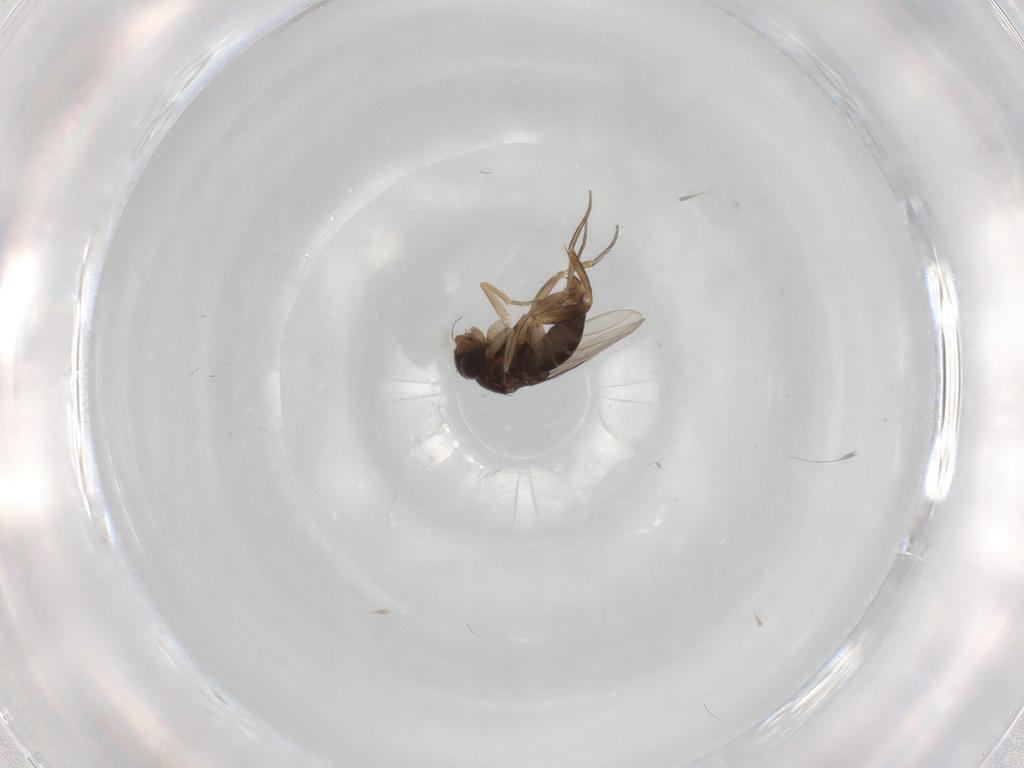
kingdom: Animalia
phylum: Arthropoda
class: Insecta
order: Diptera
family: Phoridae
